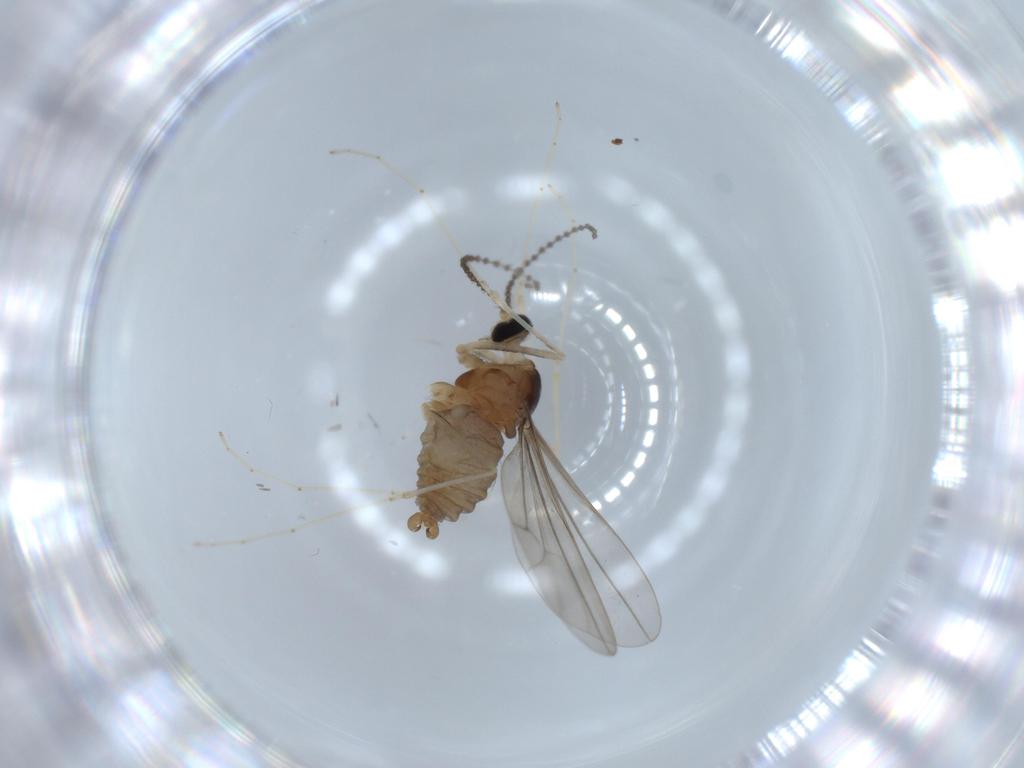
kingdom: Animalia
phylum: Arthropoda
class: Insecta
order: Diptera
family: Cecidomyiidae
